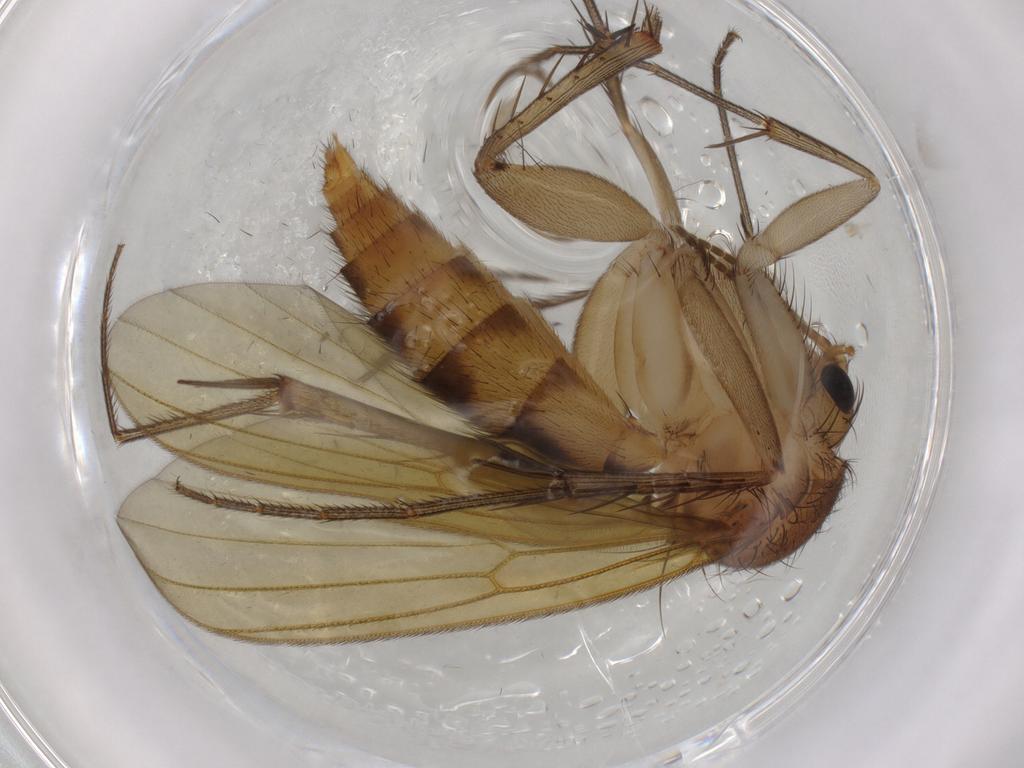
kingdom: Animalia
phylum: Arthropoda
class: Insecta
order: Diptera
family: Mycetophilidae
